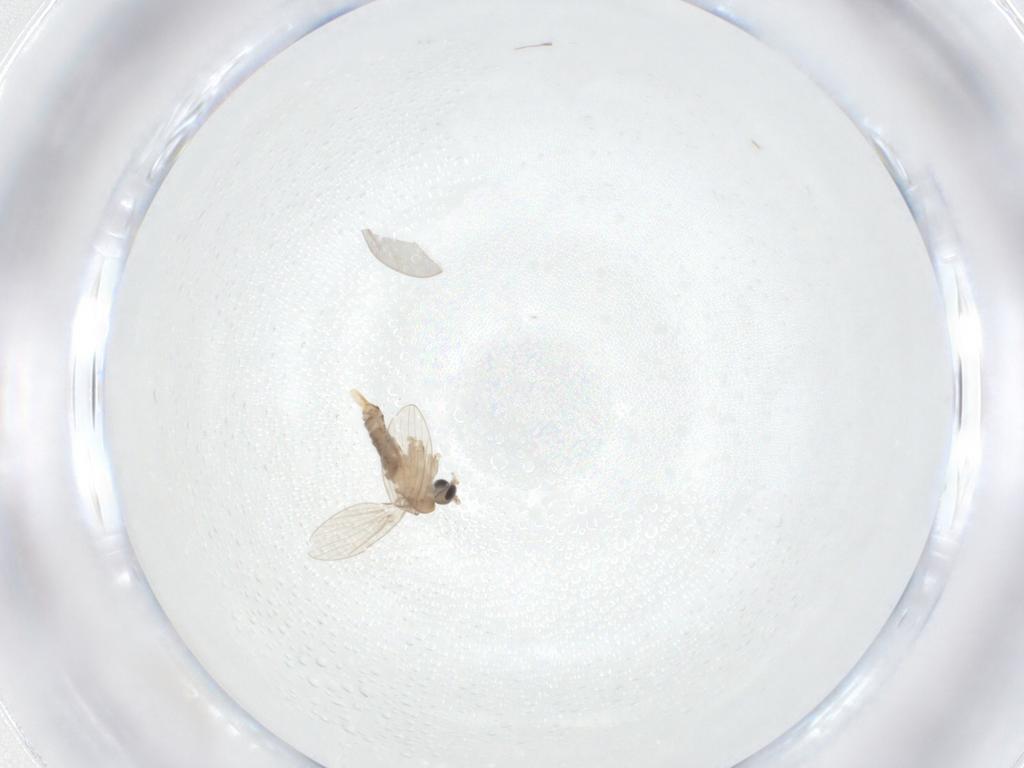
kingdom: Animalia
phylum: Arthropoda
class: Insecta
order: Diptera
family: Psychodidae
